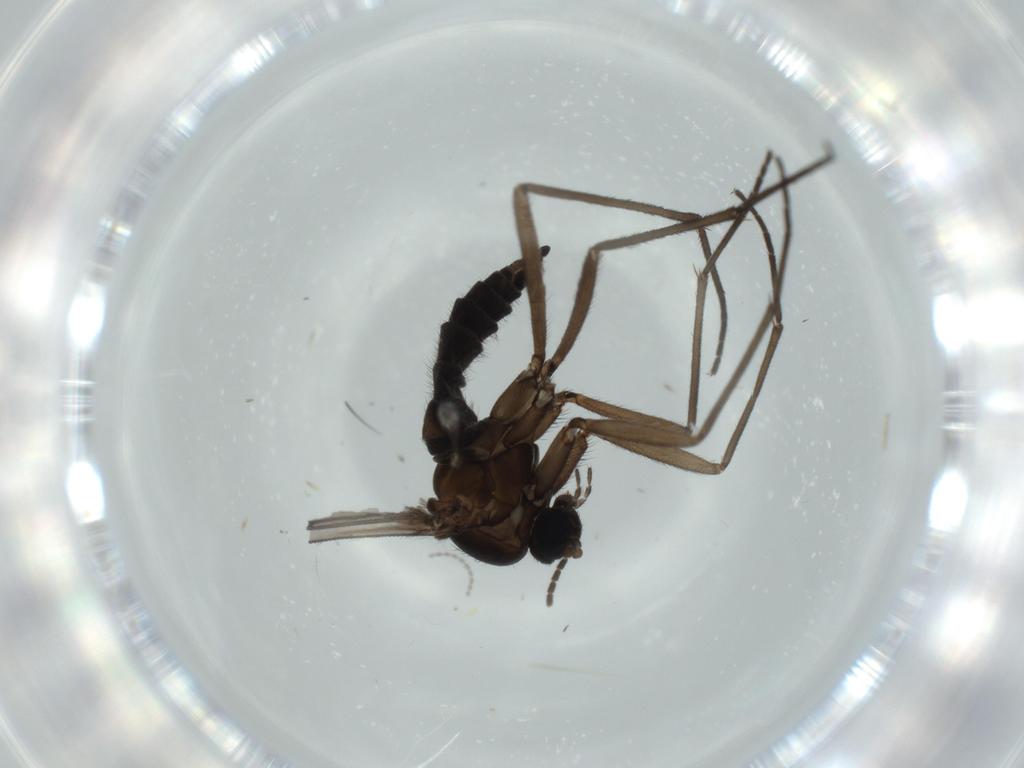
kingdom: Animalia
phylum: Arthropoda
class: Insecta
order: Diptera
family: Sciaridae
